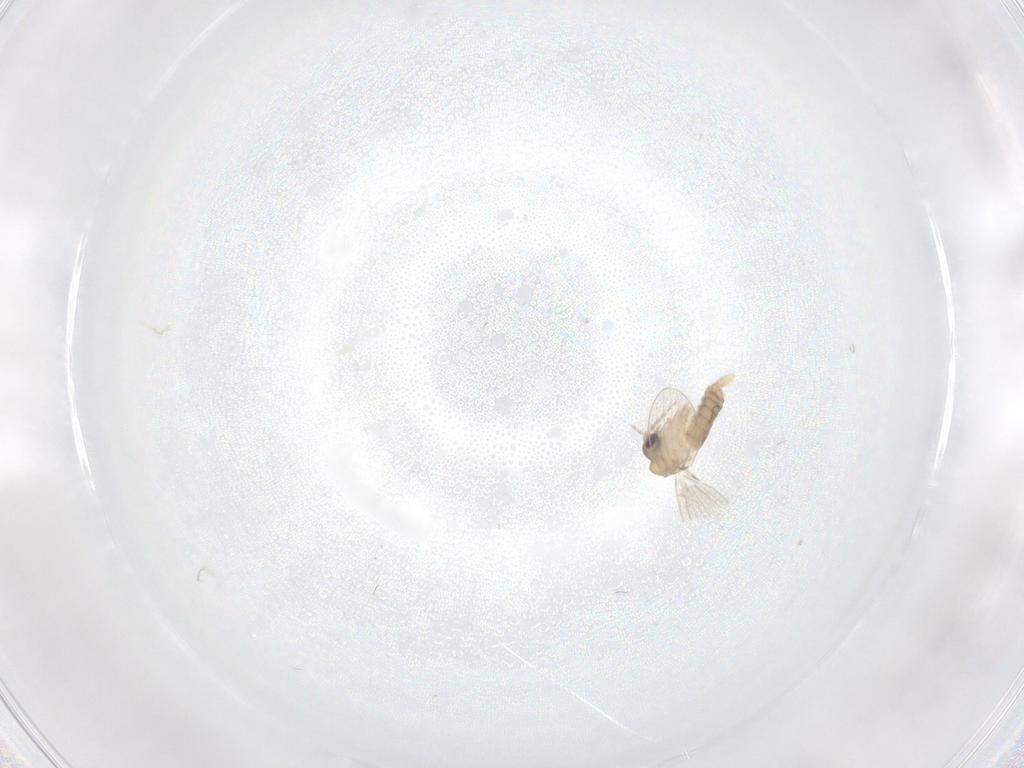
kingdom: Animalia
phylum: Arthropoda
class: Insecta
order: Diptera
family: Psychodidae
